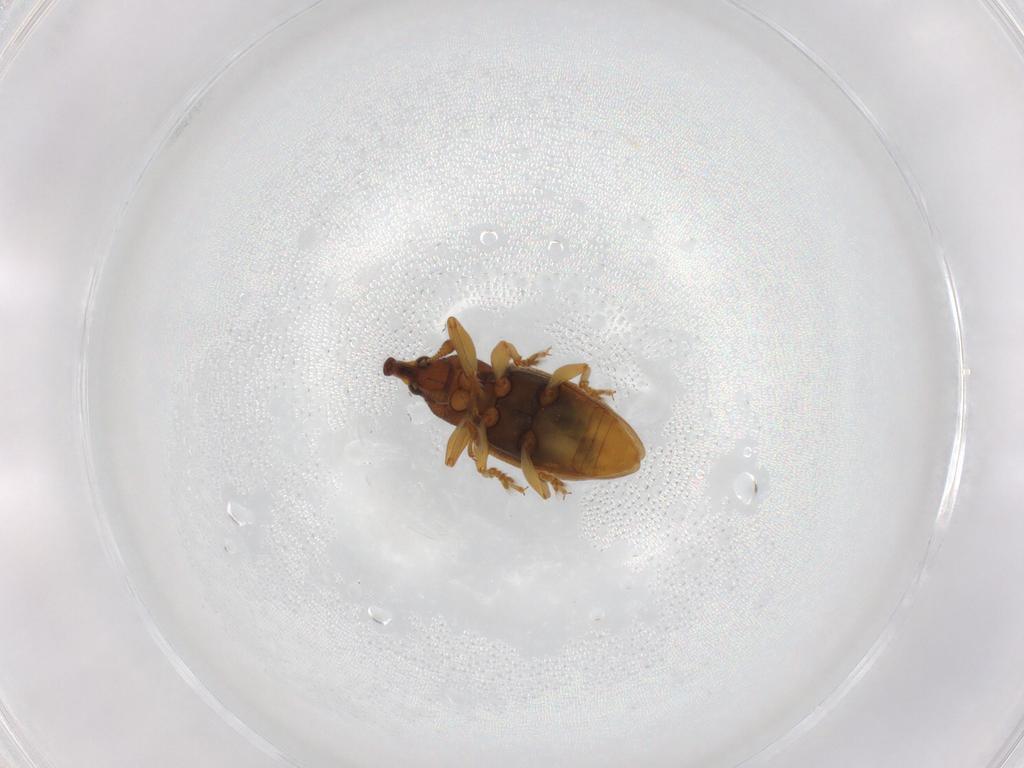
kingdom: Animalia
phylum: Arthropoda
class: Insecta
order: Coleoptera
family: Curculionidae
